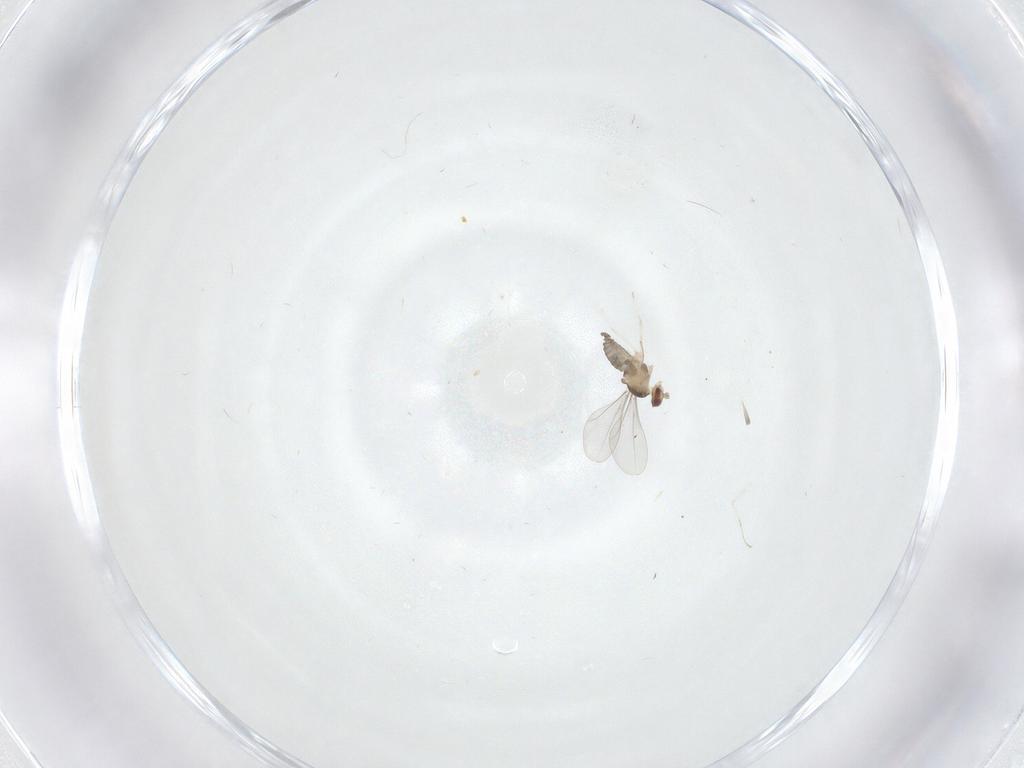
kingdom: Animalia
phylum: Arthropoda
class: Insecta
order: Diptera
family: Cecidomyiidae
